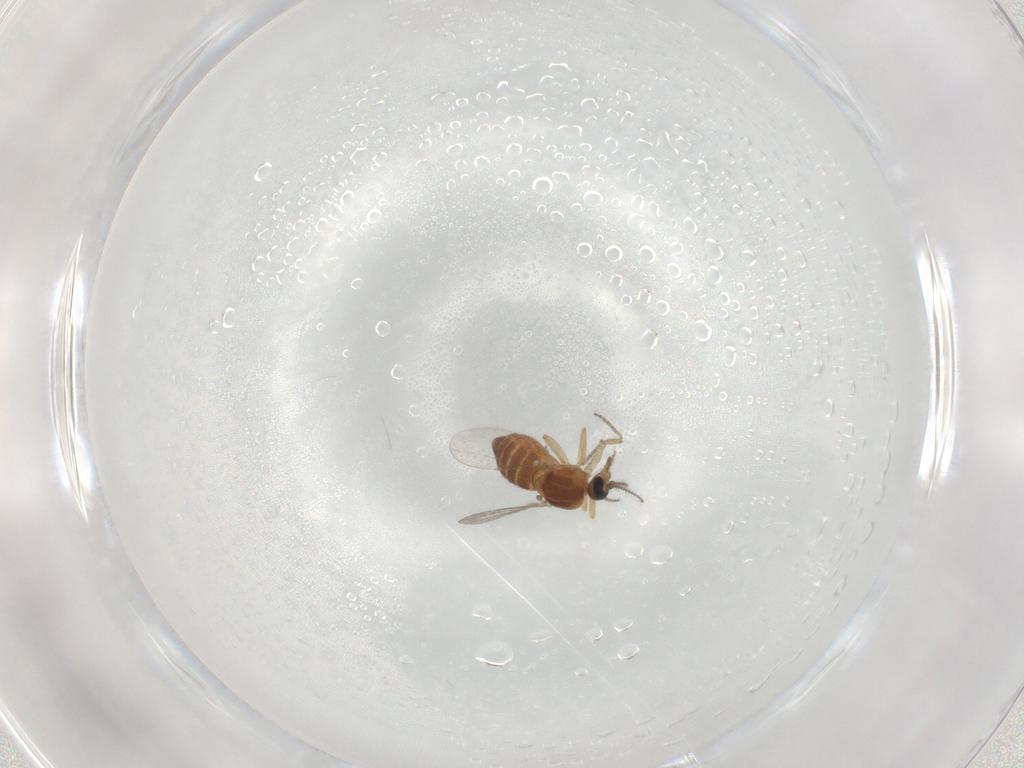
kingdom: Animalia
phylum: Arthropoda
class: Insecta
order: Diptera
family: Ceratopogonidae
